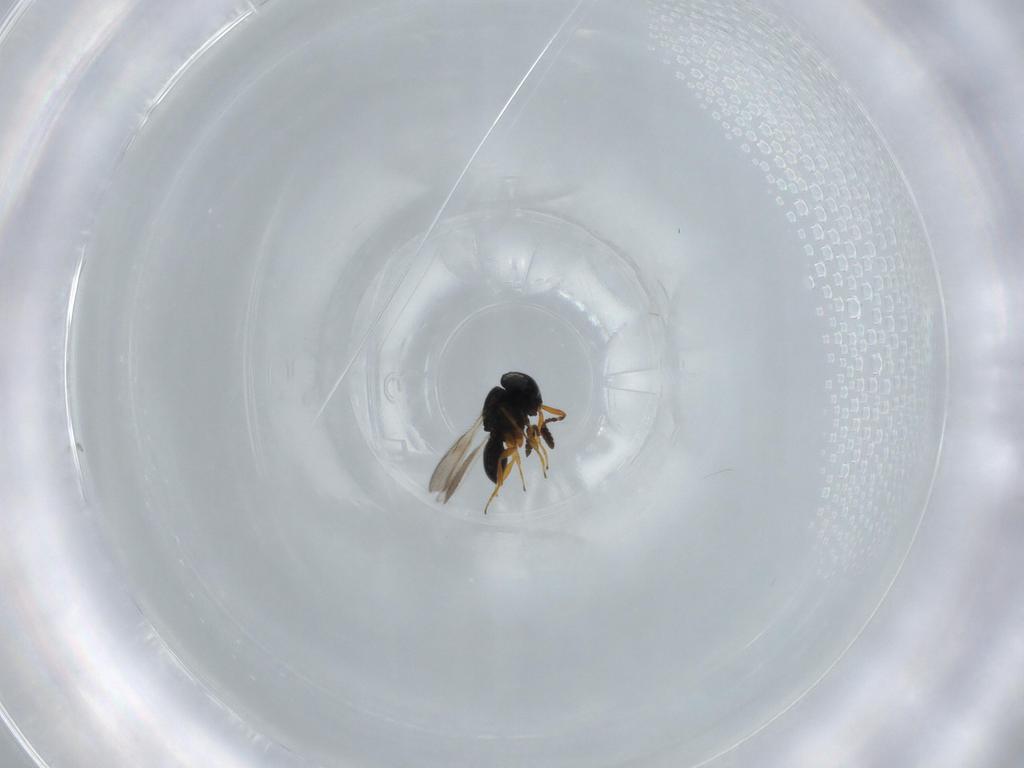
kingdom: Animalia
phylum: Arthropoda
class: Insecta
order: Hymenoptera
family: Scelionidae
